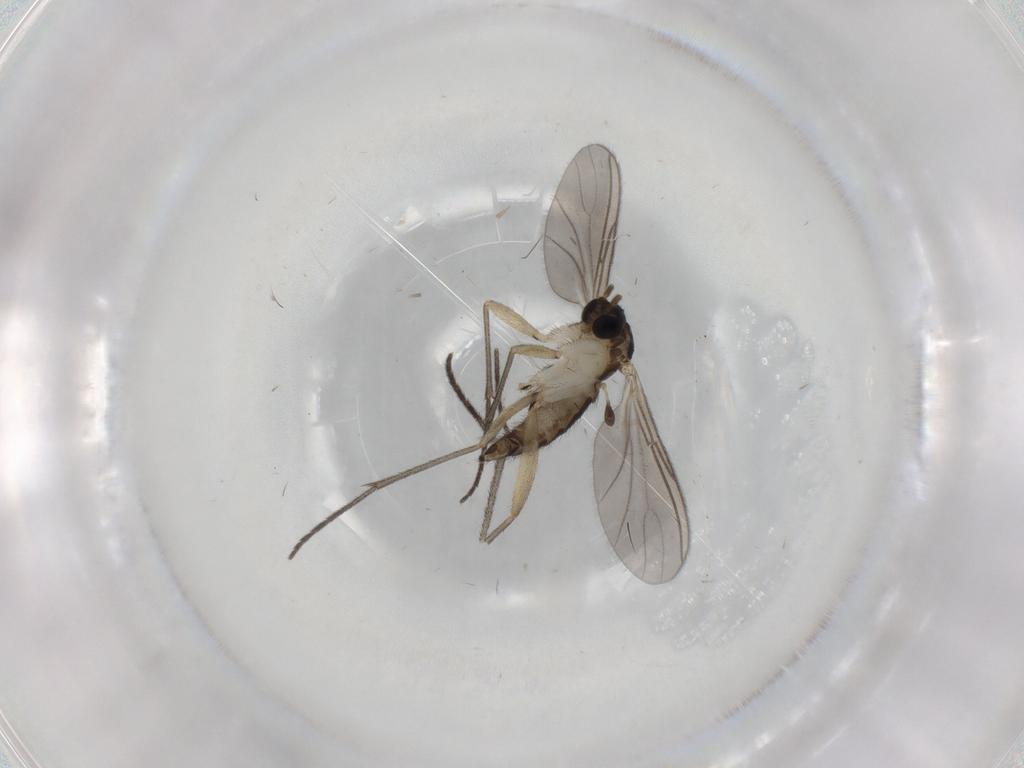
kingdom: Animalia
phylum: Arthropoda
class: Insecta
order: Diptera
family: Sciaridae
